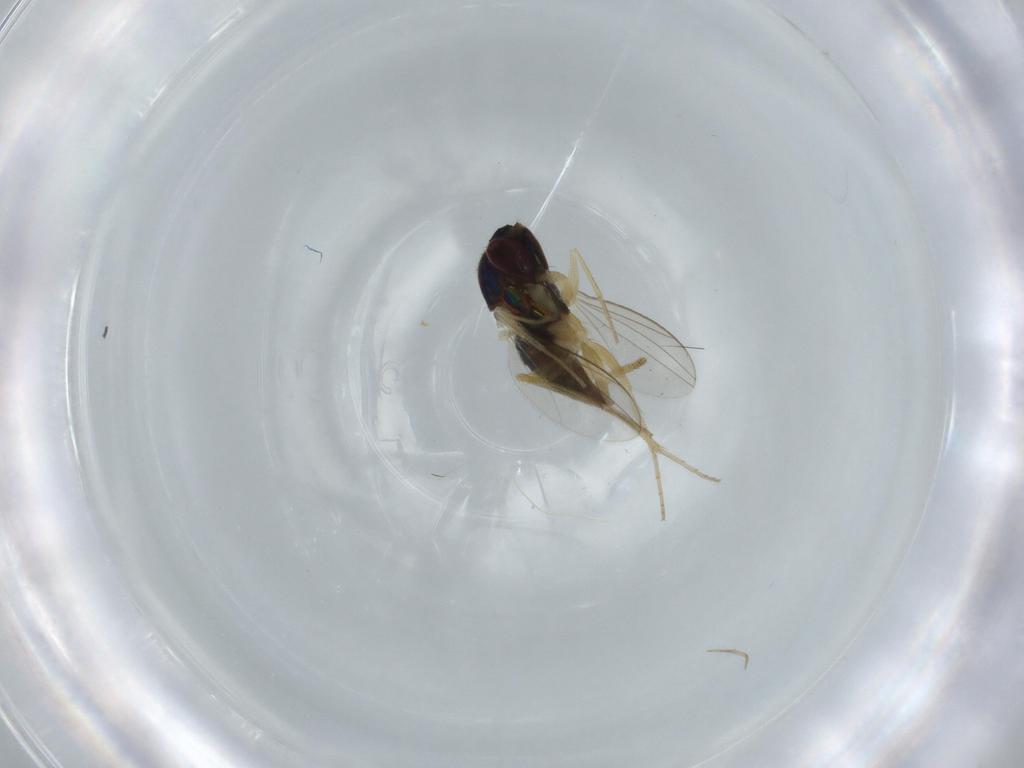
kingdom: Animalia
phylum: Arthropoda
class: Insecta
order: Diptera
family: Dolichopodidae
